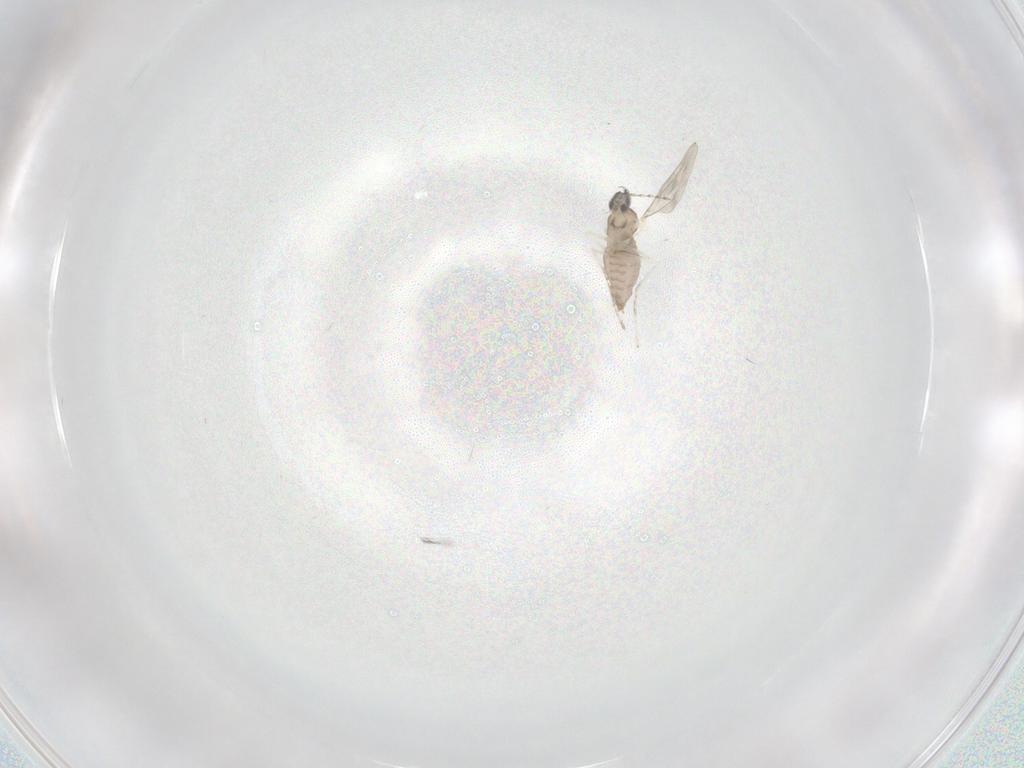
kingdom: Animalia
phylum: Arthropoda
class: Insecta
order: Diptera
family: Cecidomyiidae
